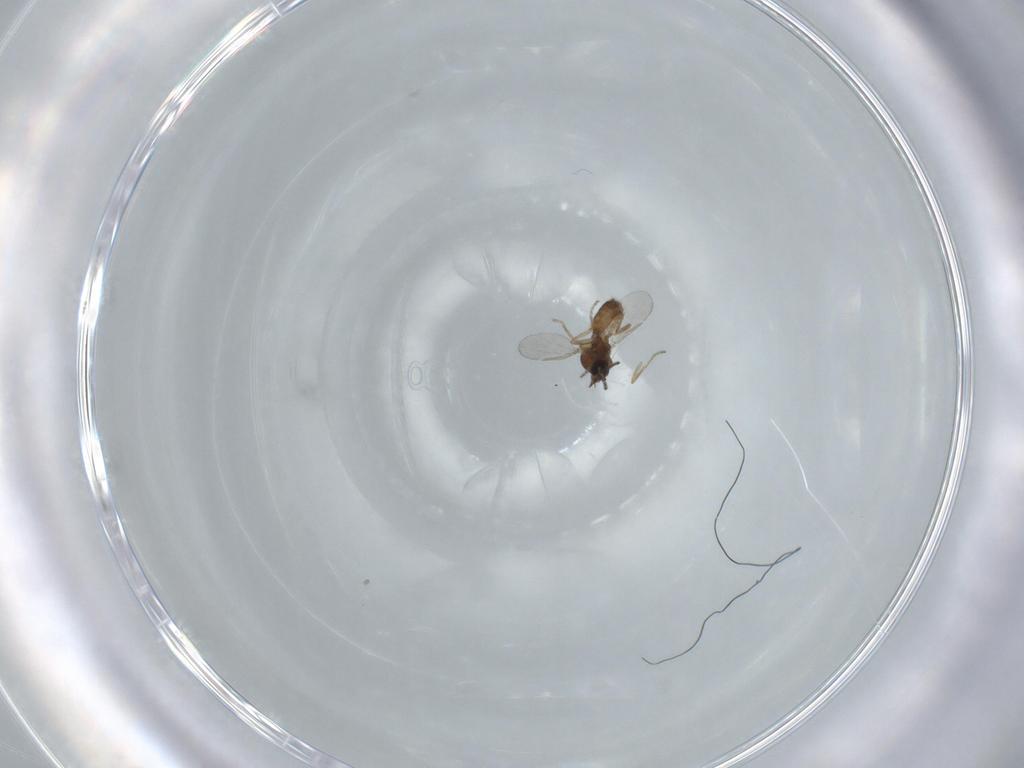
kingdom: Animalia
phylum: Arthropoda
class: Insecta
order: Diptera
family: Ceratopogonidae
